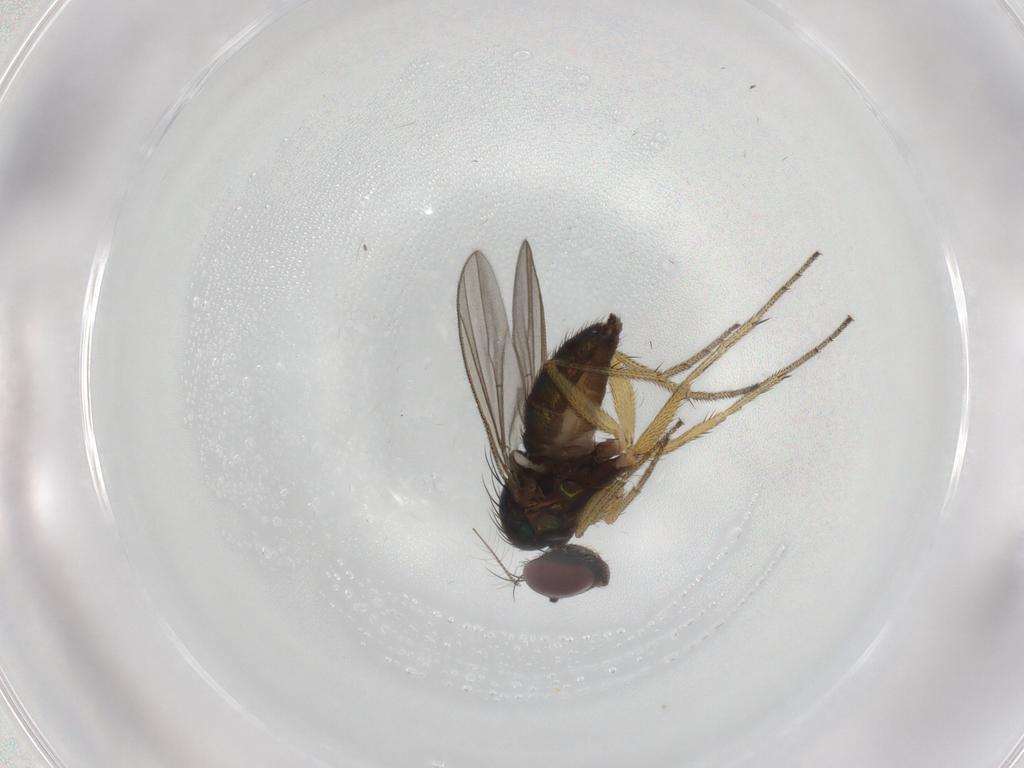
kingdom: Animalia
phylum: Arthropoda
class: Insecta
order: Diptera
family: Dolichopodidae
